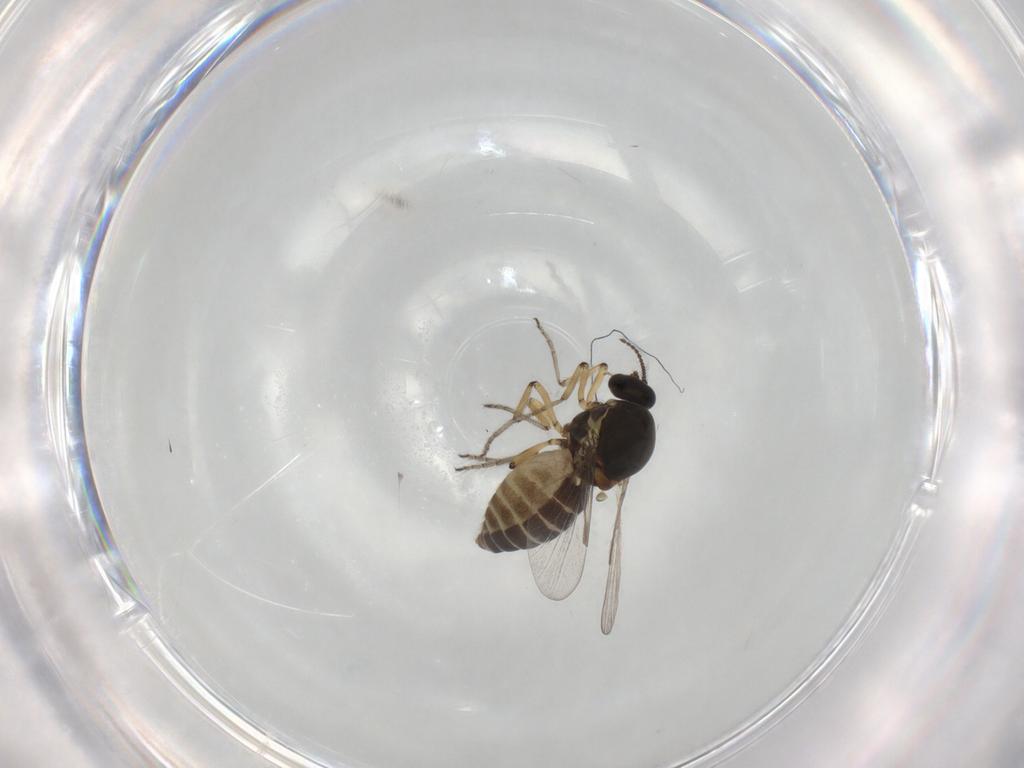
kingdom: Animalia
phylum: Arthropoda
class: Insecta
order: Diptera
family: Ceratopogonidae
